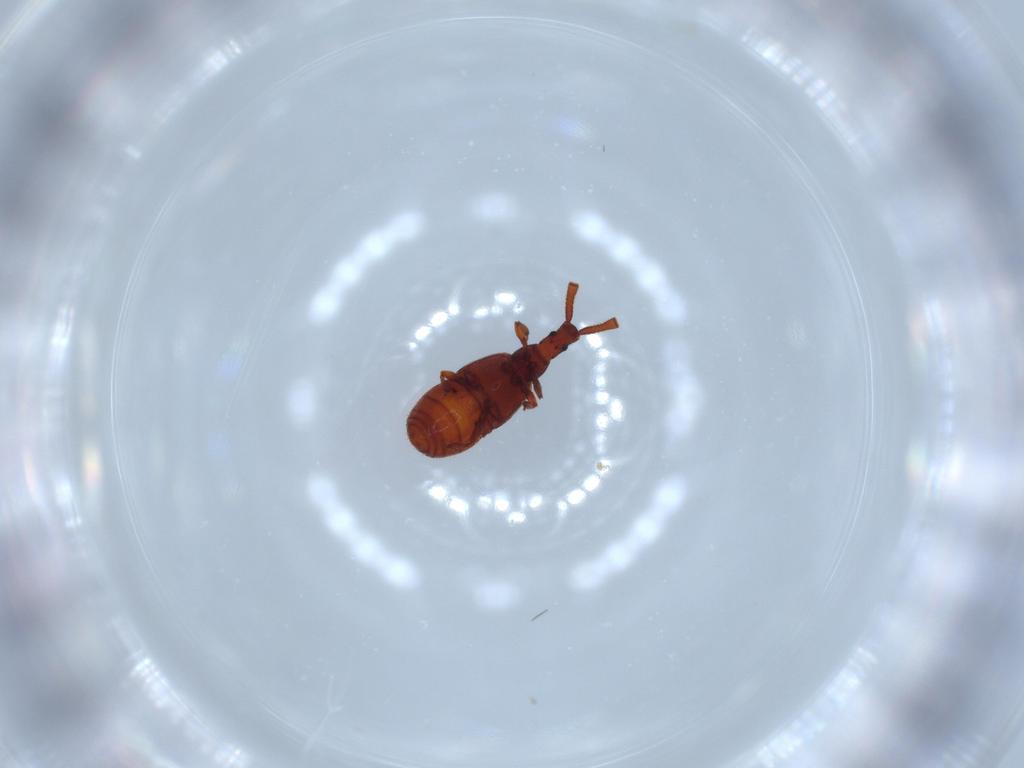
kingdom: Animalia
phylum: Arthropoda
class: Insecta
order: Coleoptera
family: Staphylinidae
